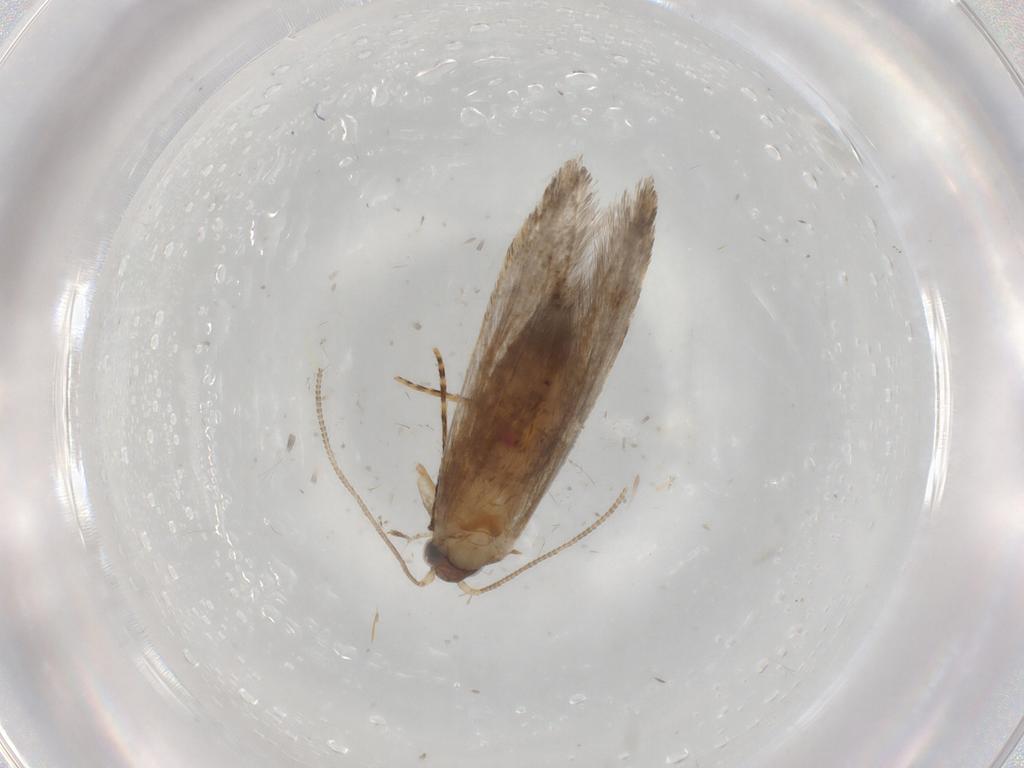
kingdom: Animalia
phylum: Arthropoda
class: Insecta
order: Lepidoptera
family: Tineidae
